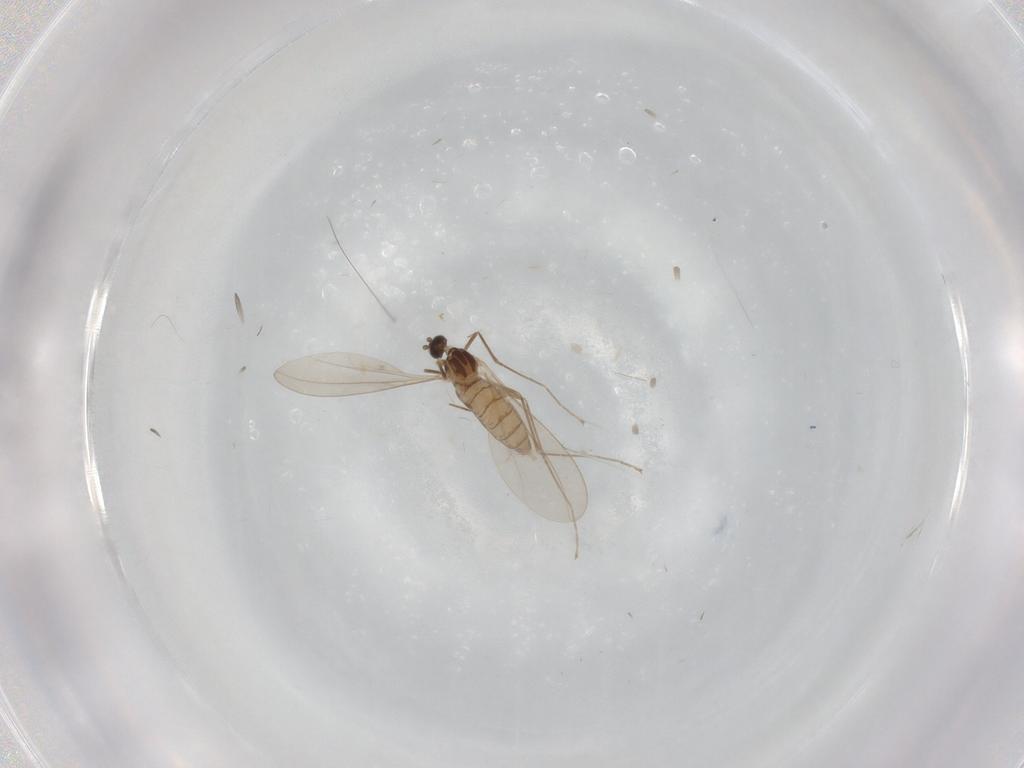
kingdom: Animalia
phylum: Arthropoda
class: Insecta
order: Diptera
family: Cecidomyiidae
